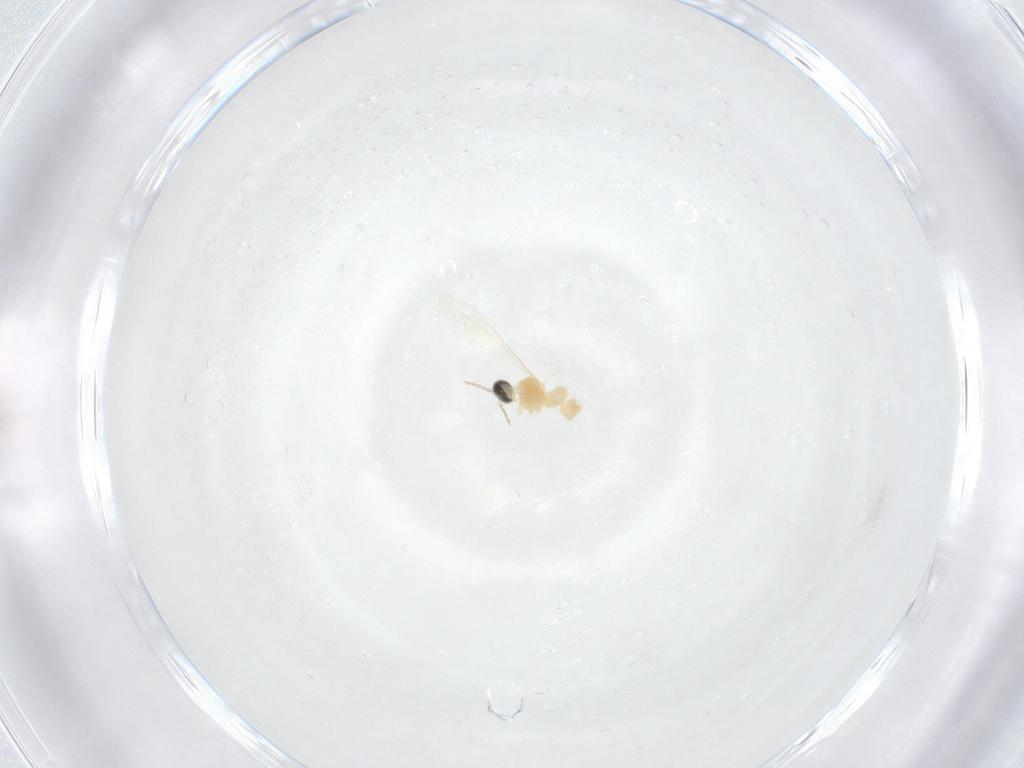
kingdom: Animalia
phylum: Arthropoda
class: Insecta
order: Diptera
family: Cecidomyiidae
